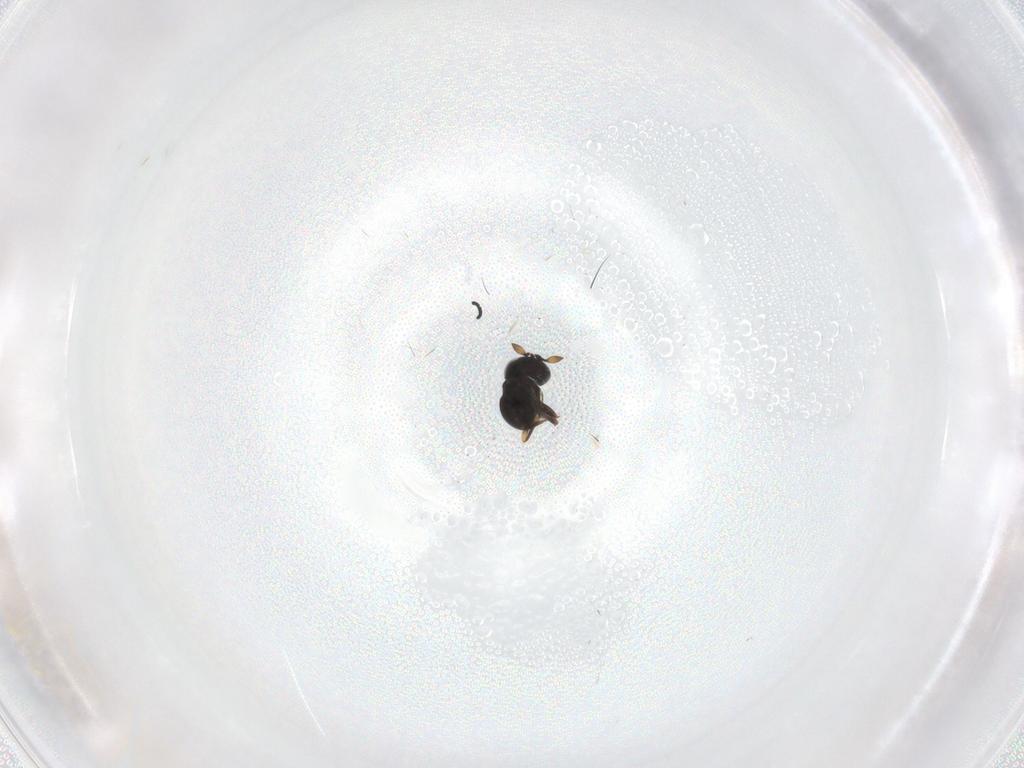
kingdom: Animalia
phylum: Arthropoda
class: Insecta
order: Hymenoptera
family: Scelionidae
